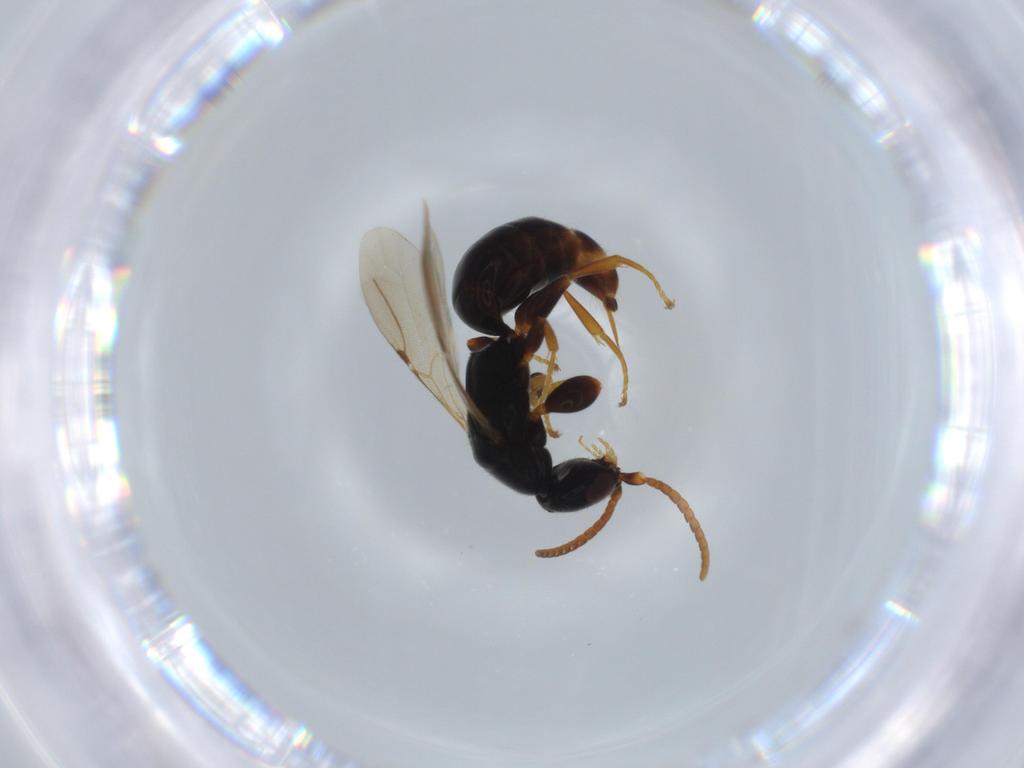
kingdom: Animalia
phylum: Arthropoda
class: Insecta
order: Hymenoptera
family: Bethylidae
